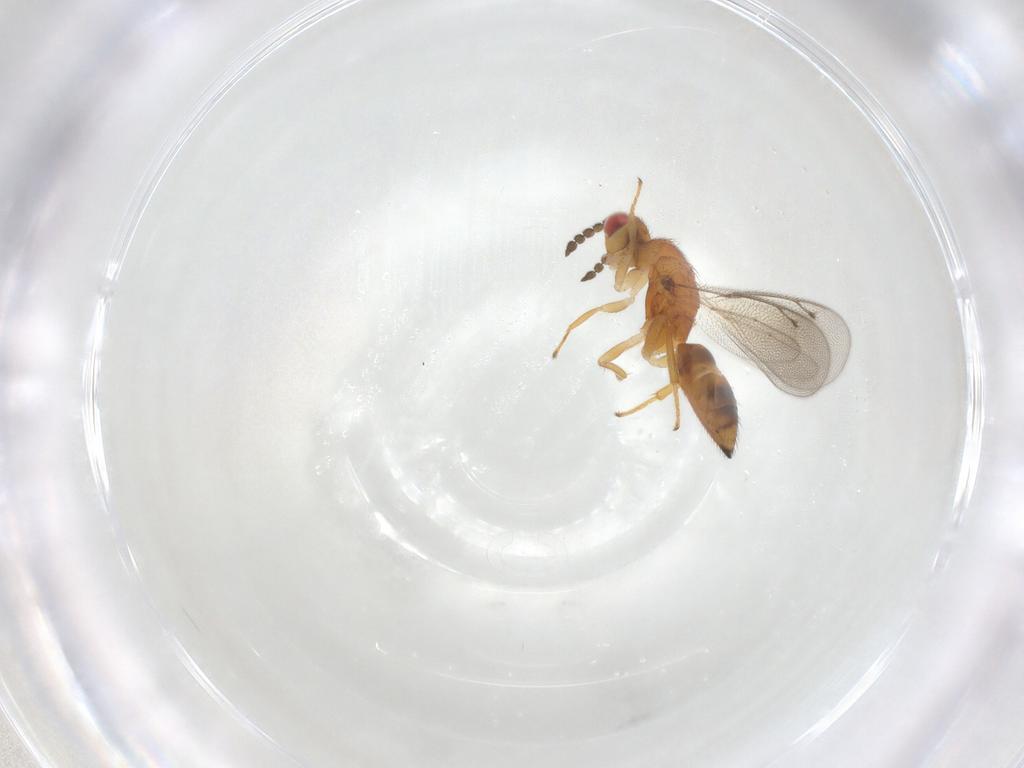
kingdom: Animalia
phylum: Arthropoda
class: Insecta
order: Hymenoptera
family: Eulophidae
